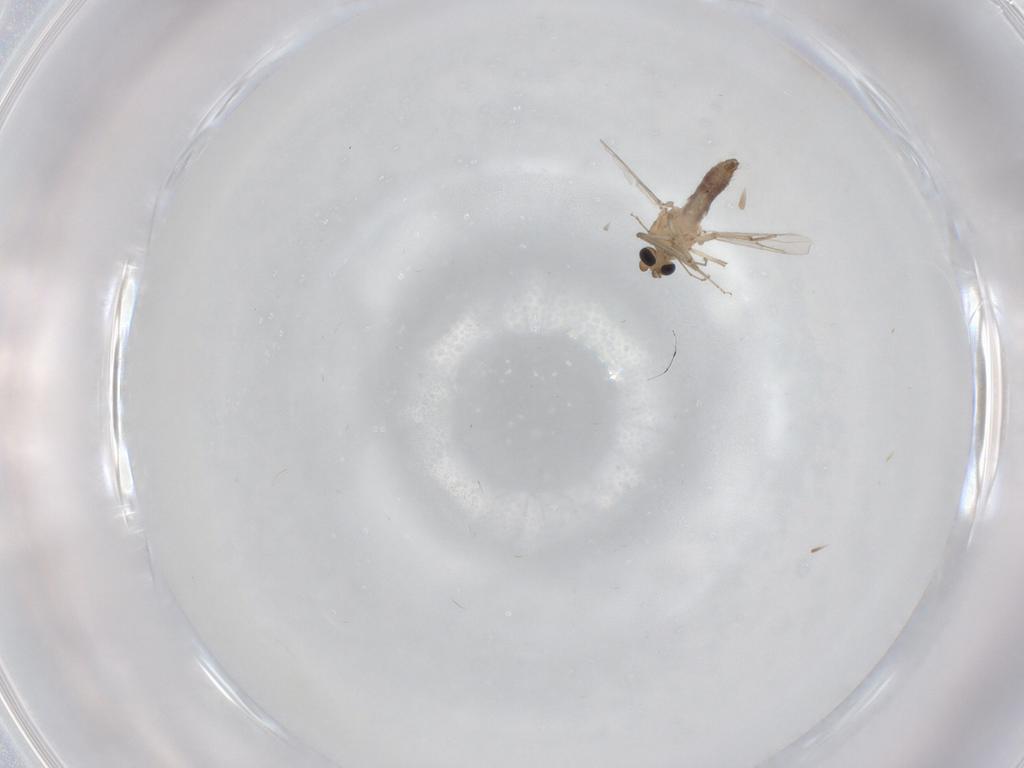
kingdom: Animalia
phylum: Arthropoda
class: Insecta
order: Diptera
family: Ceratopogonidae
